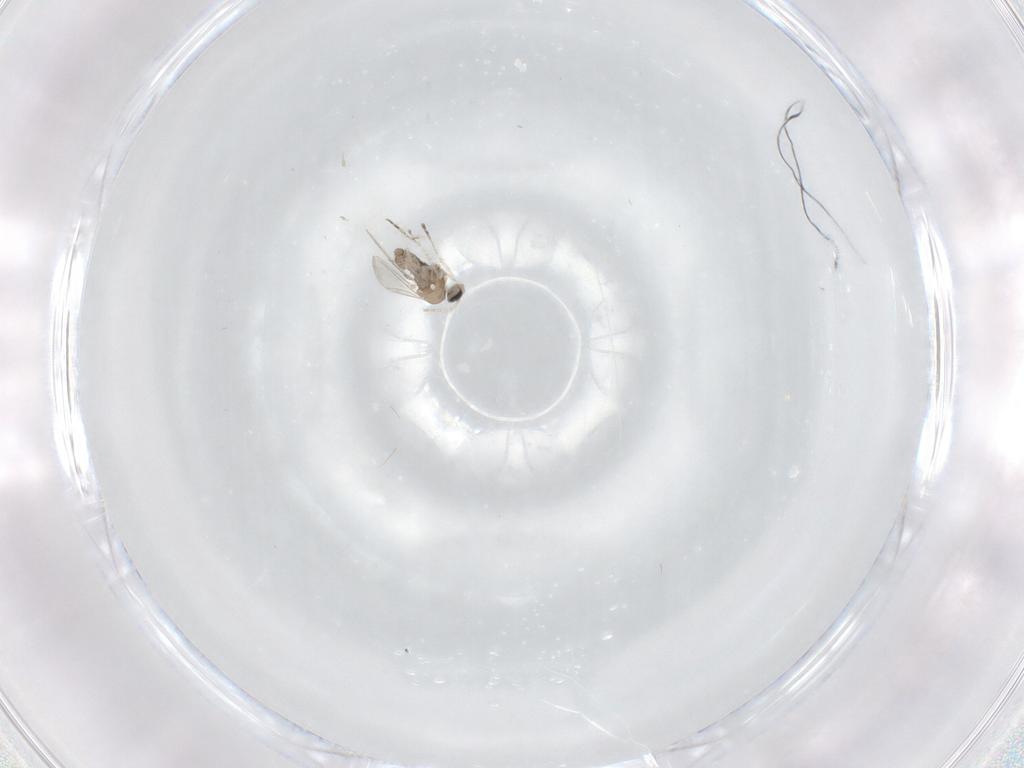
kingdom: Animalia
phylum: Arthropoda
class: Insecta
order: Diptera
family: Cecidomyiidae
